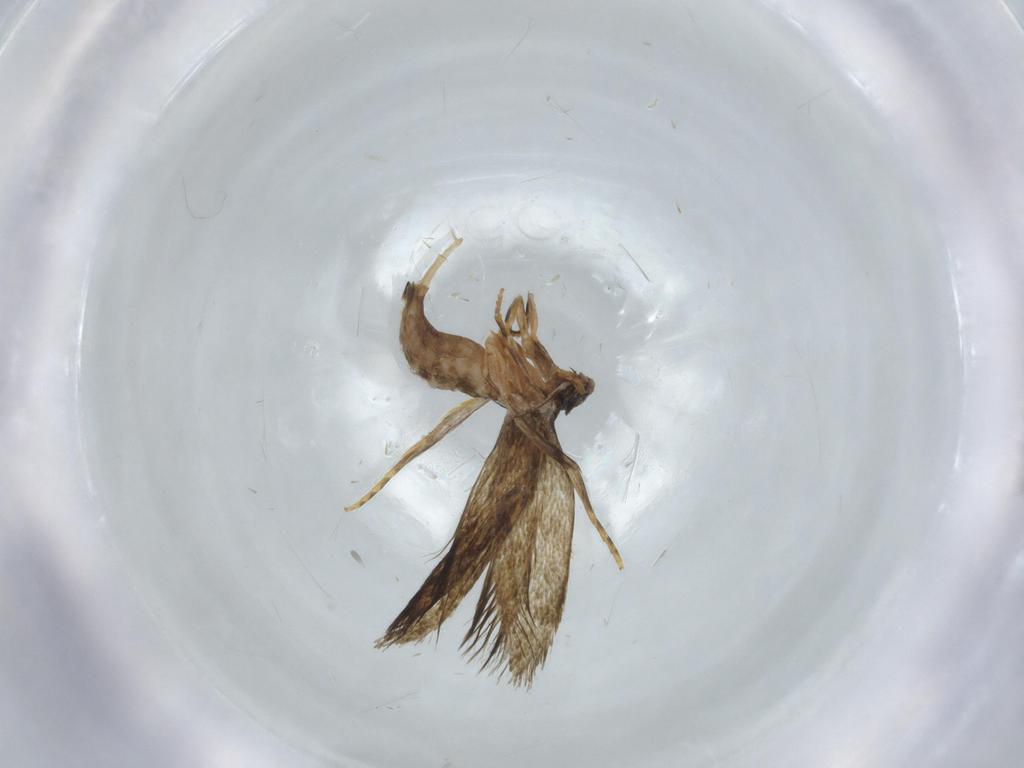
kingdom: Animalia
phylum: Arthropoda
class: Insecta
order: Lepidoptera
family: Tineidae
